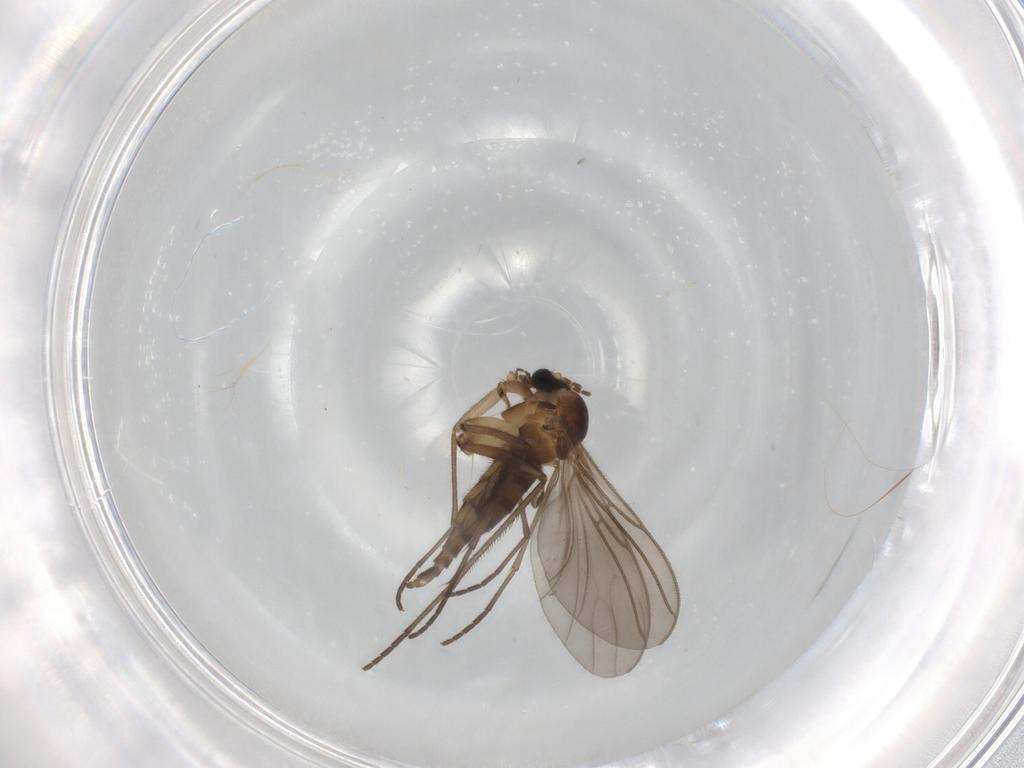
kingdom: Animalia
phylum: Arthropoda
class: Insecta
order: Diptera
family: Sciaridae
